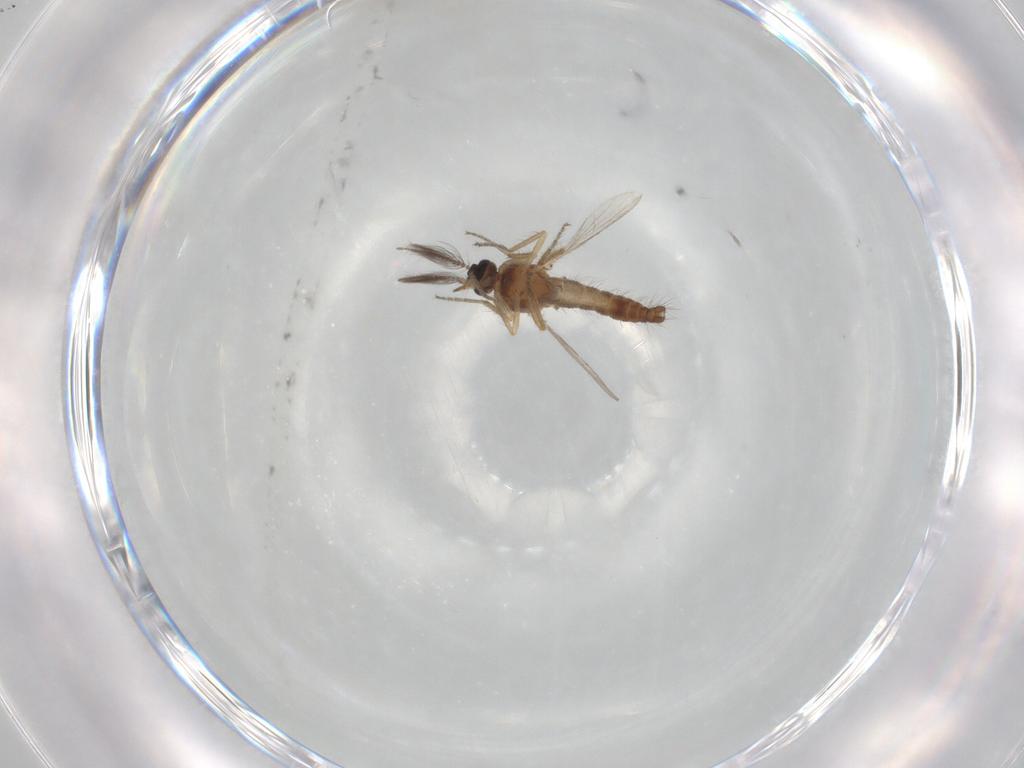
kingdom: Animalia
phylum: Arthropoda
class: Insecta
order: Diptera
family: Ceratopogonidae
